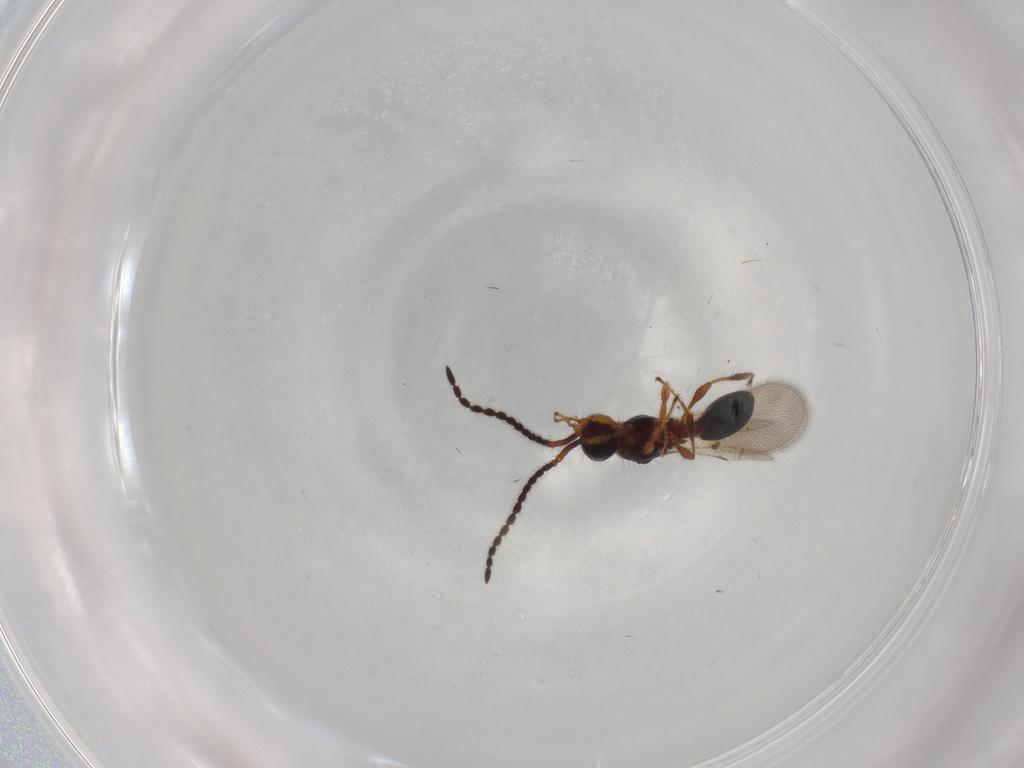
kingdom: Animalia
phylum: Arthropoda
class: Insecta
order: Hymenoptera
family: Diapriidae
